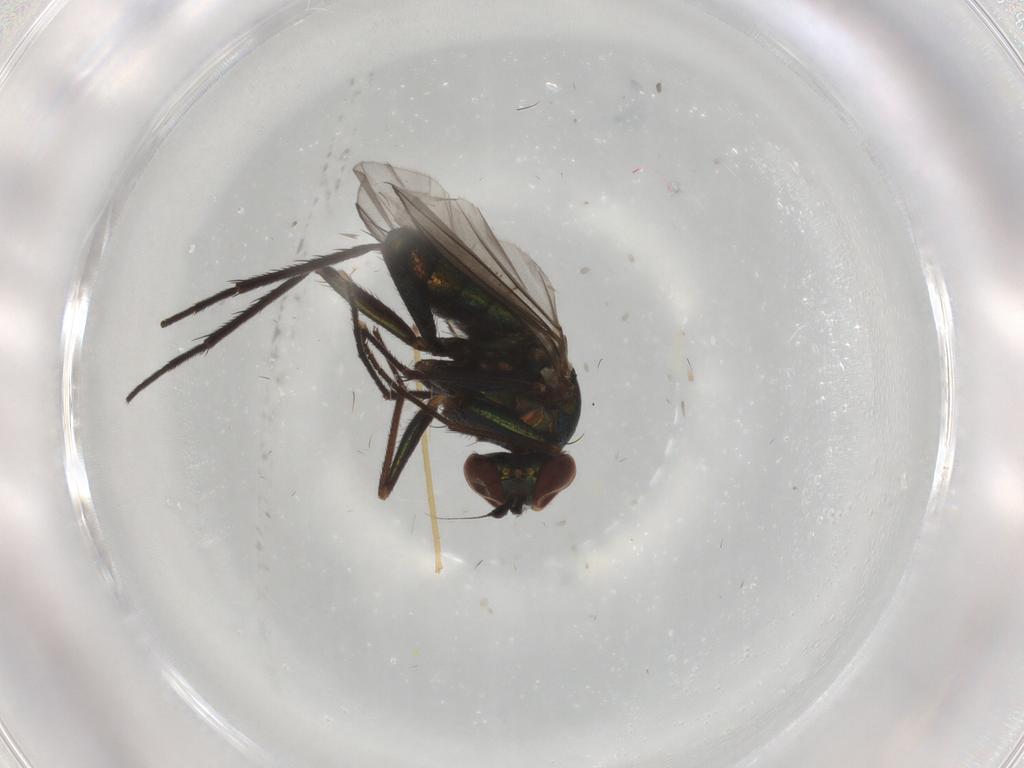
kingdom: Animalia
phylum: Arthropoda
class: Insecta
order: Diptera
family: Dolichopodidae
